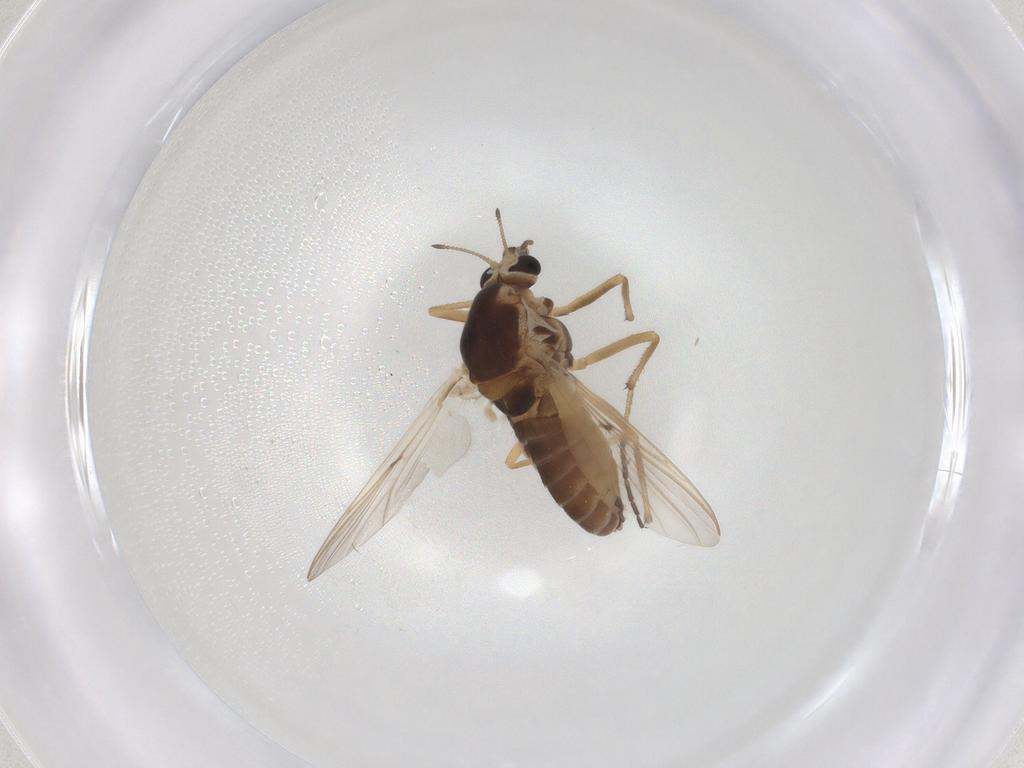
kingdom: Animalia
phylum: Arthropoda
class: Insecta
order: Diptera
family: Chironomidae
